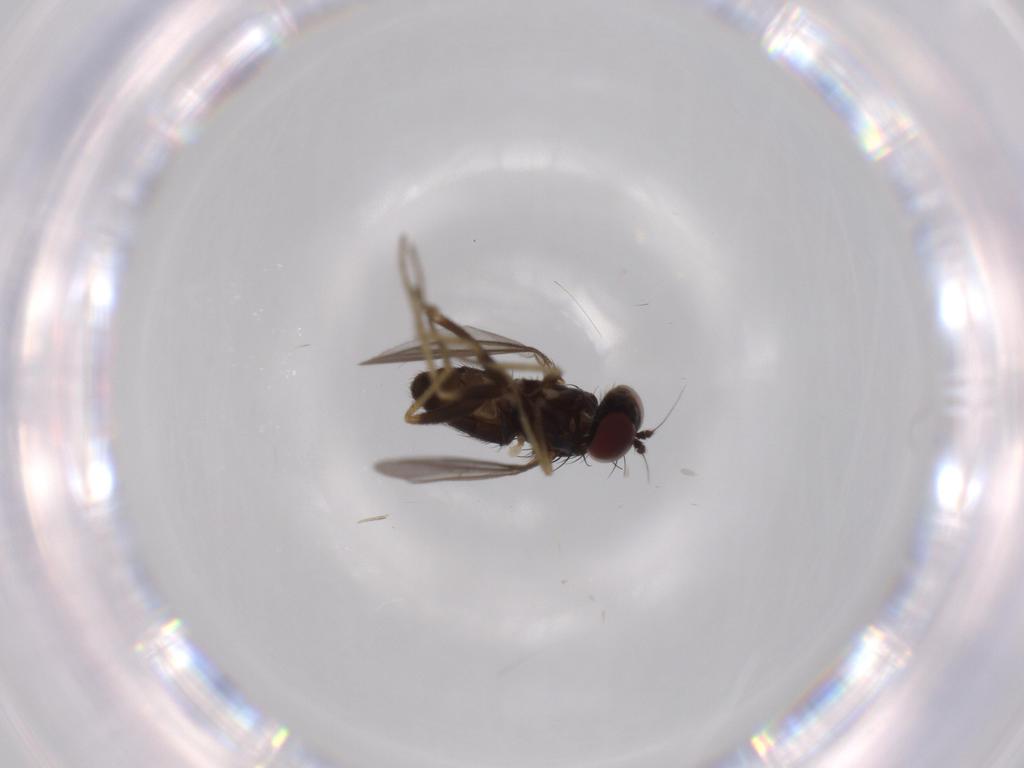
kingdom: Animalia
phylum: Arthropoda
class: Insecta
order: Diptera
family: Dolichopodidae
